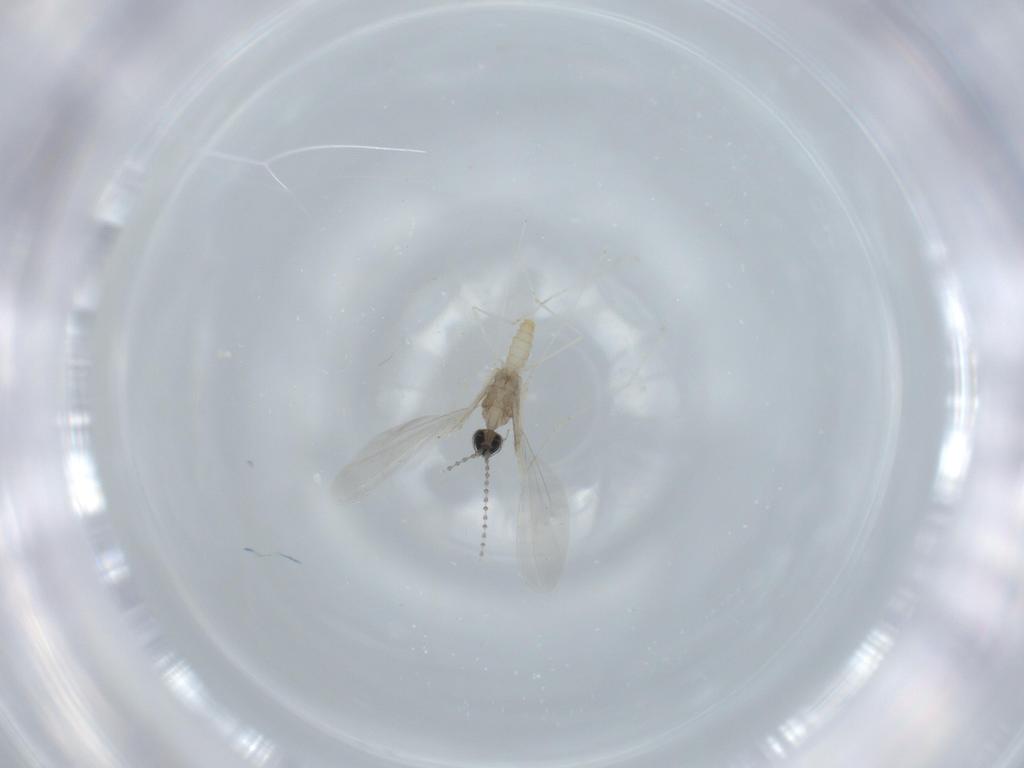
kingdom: Animalia
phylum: Arthropoda
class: Insecta
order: Diptera
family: Cecidomyiidae
